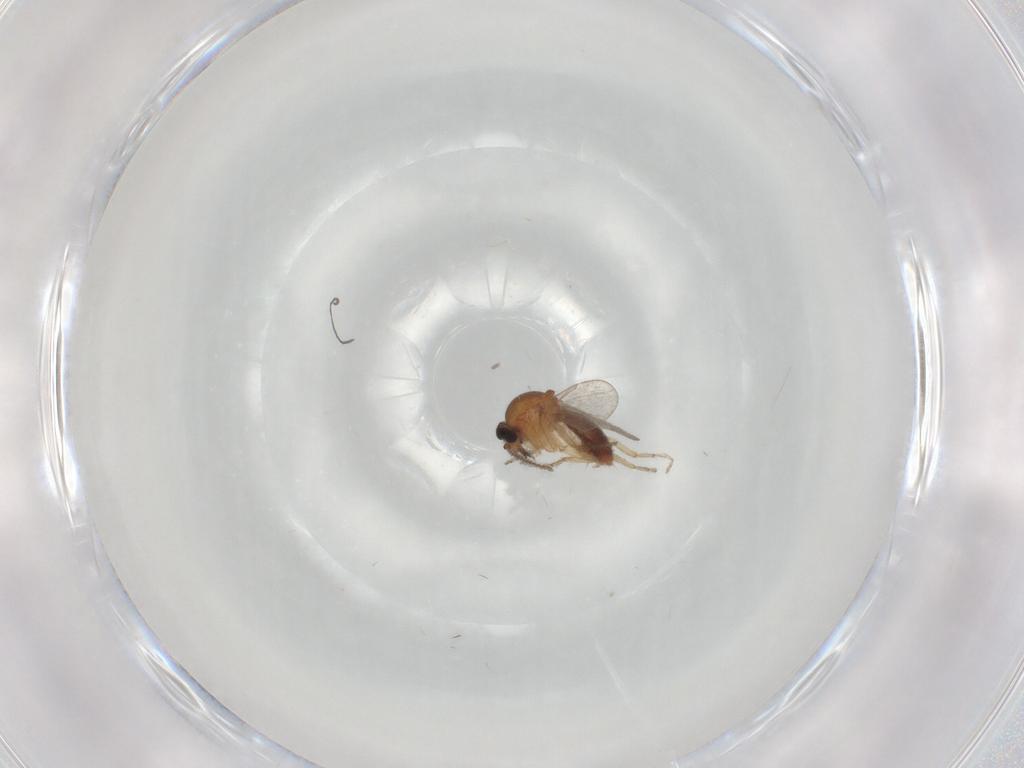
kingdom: Animalia
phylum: Arthropoda
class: Insecta
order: Diptera
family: Ceratopogonidae
